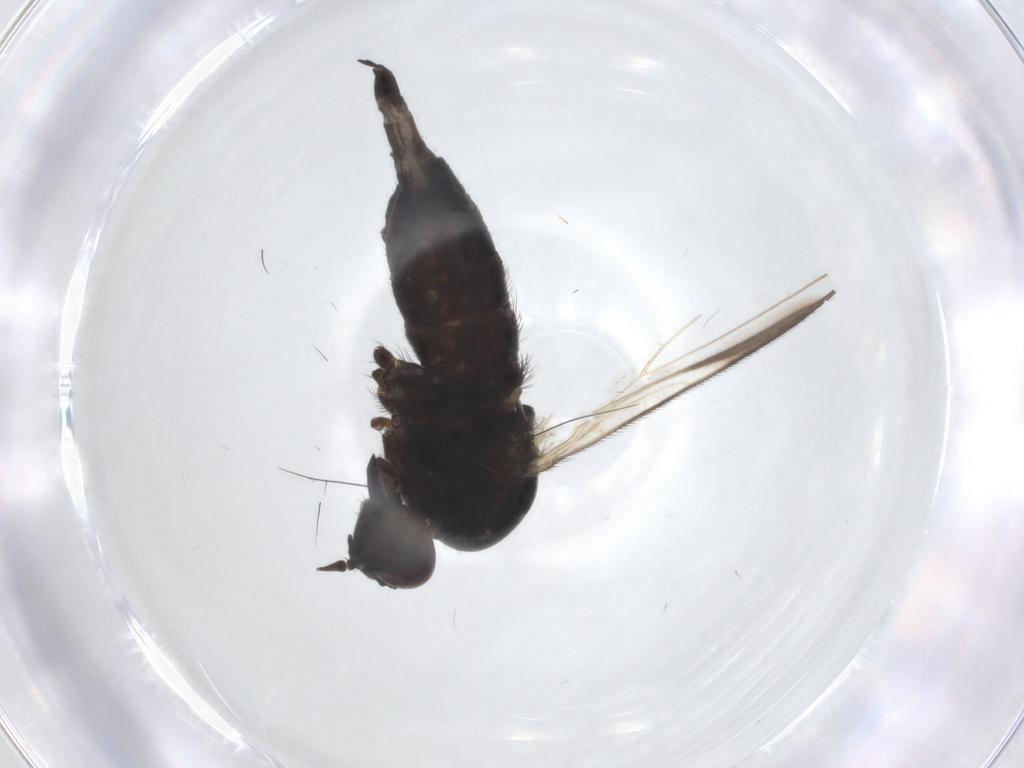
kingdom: Animalia
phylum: Arthropoda
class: Insecta
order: Diptera
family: Empididae
